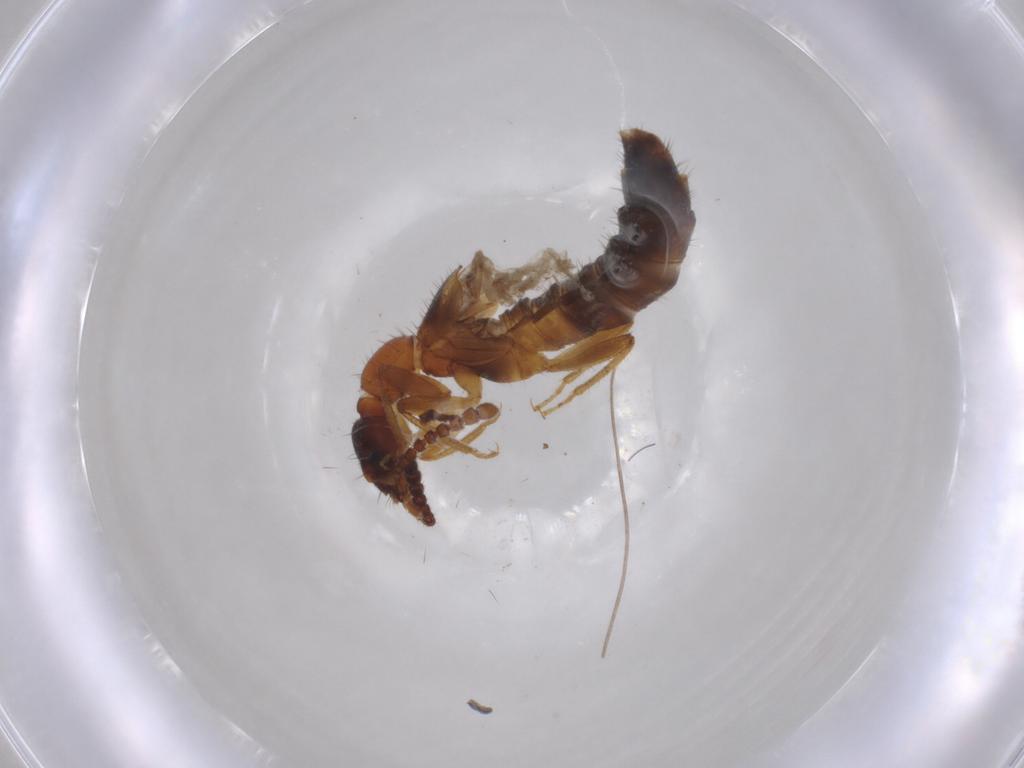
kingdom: Animalia
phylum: Arthropoda
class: Insecta
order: Coleoptera
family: Staphylinidae
